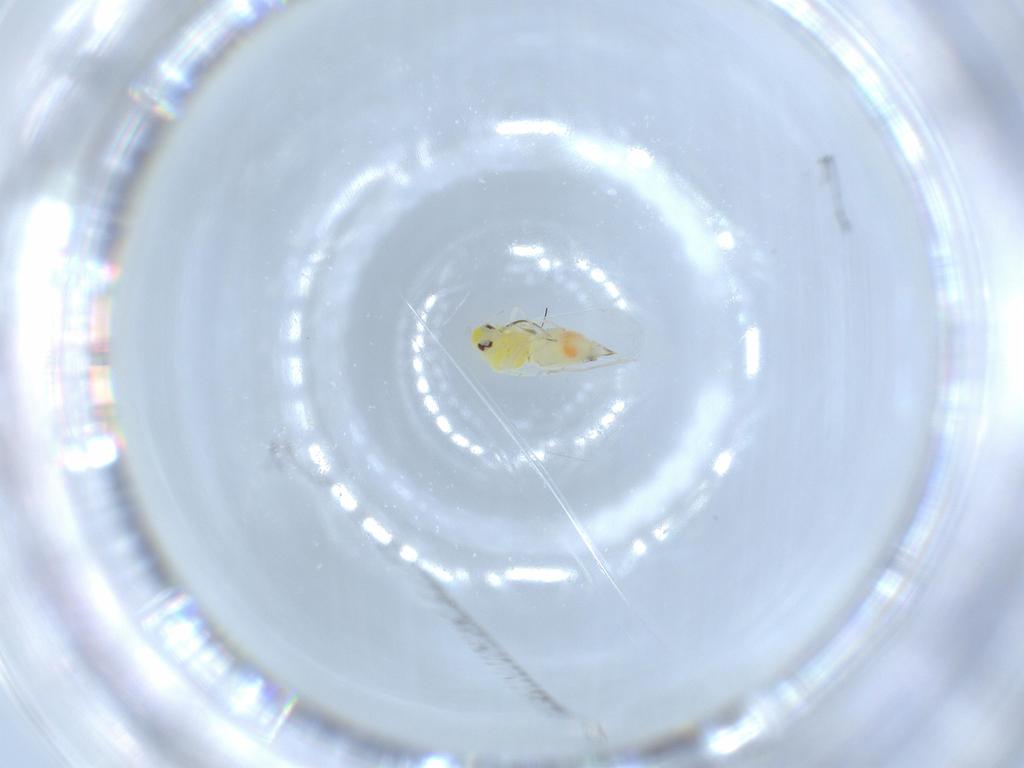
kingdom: Animalia
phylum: Arthropoda
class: Insecta
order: Hemiptera
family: Aleyrodidae
